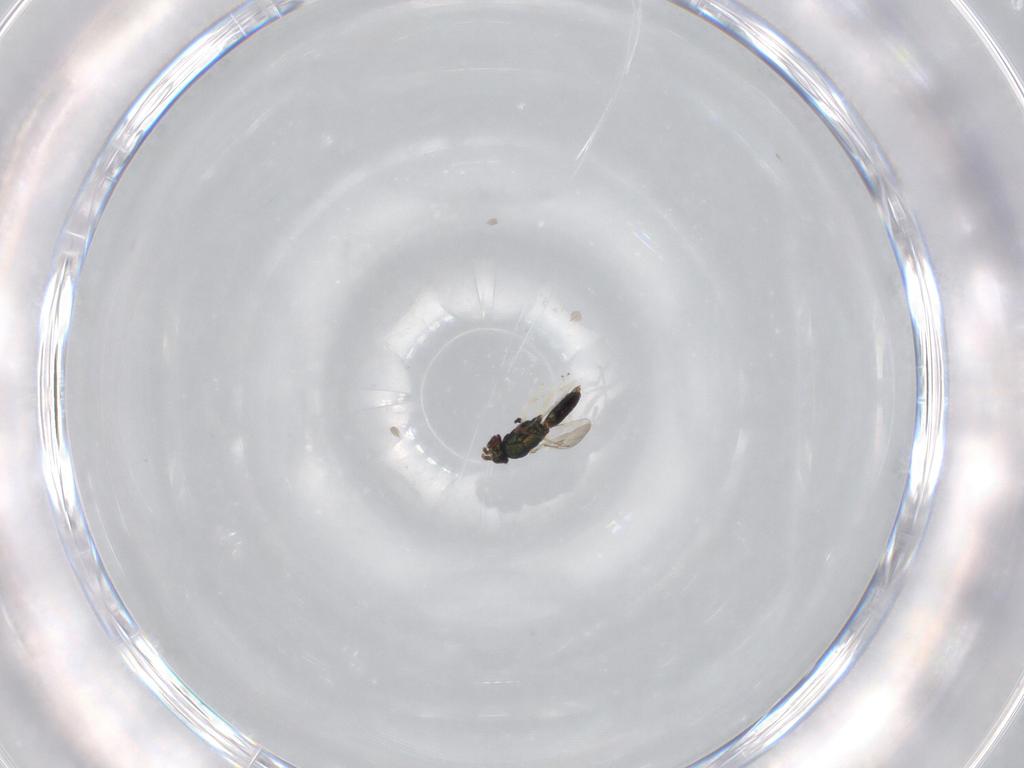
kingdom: Animalia
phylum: Arthropoda
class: Insecta
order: Hymenoptera
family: Eulophidae
